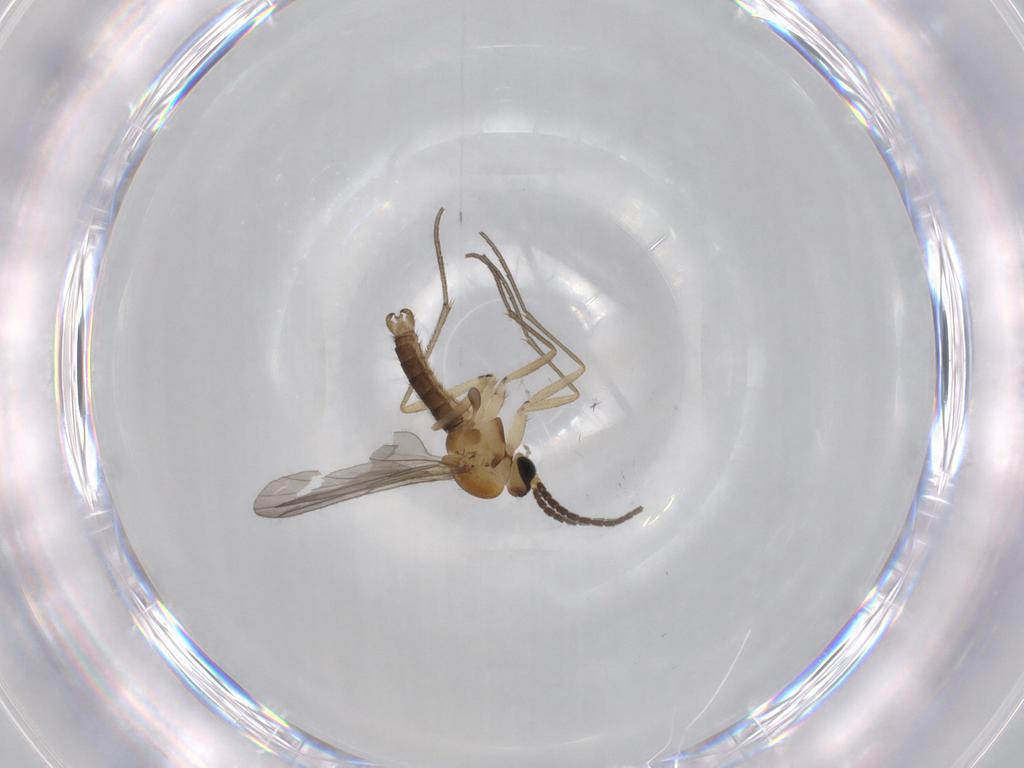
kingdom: Animalia
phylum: Arthropoda
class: Insecta
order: Diptera
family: Sciaridae
